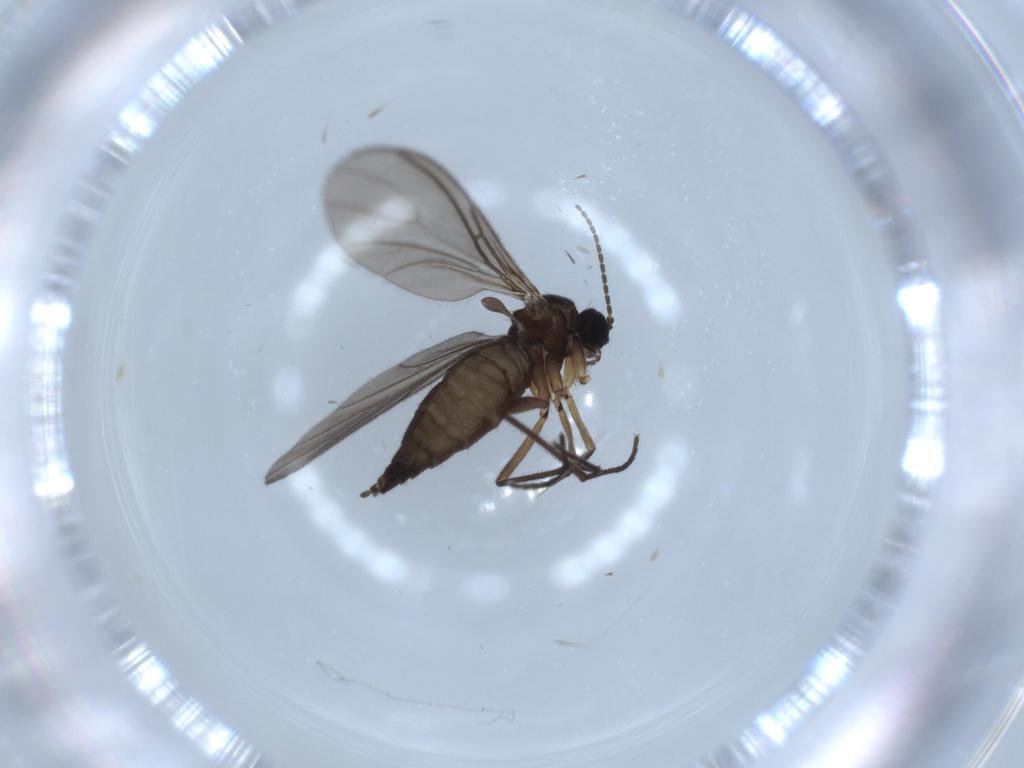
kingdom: Animalia
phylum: Arthropoda
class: Insecta
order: Diptera
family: Sciaridae
